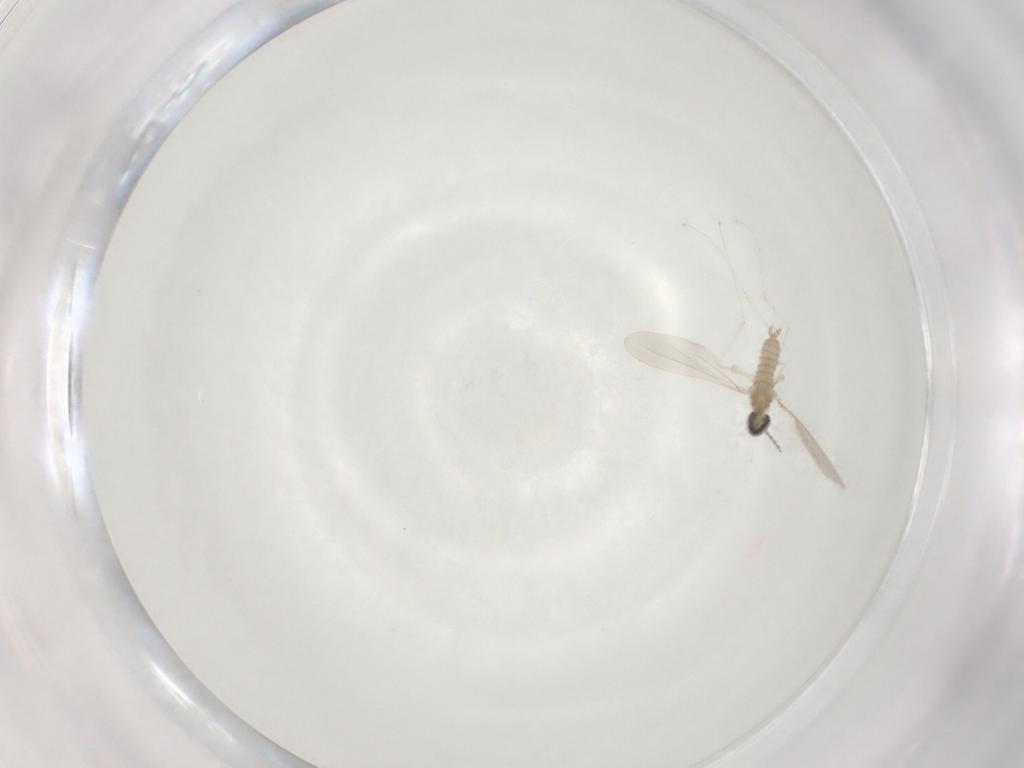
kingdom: Animalia
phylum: Arthropoda
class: Insecta
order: Diptera
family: Cecidomyiidae
